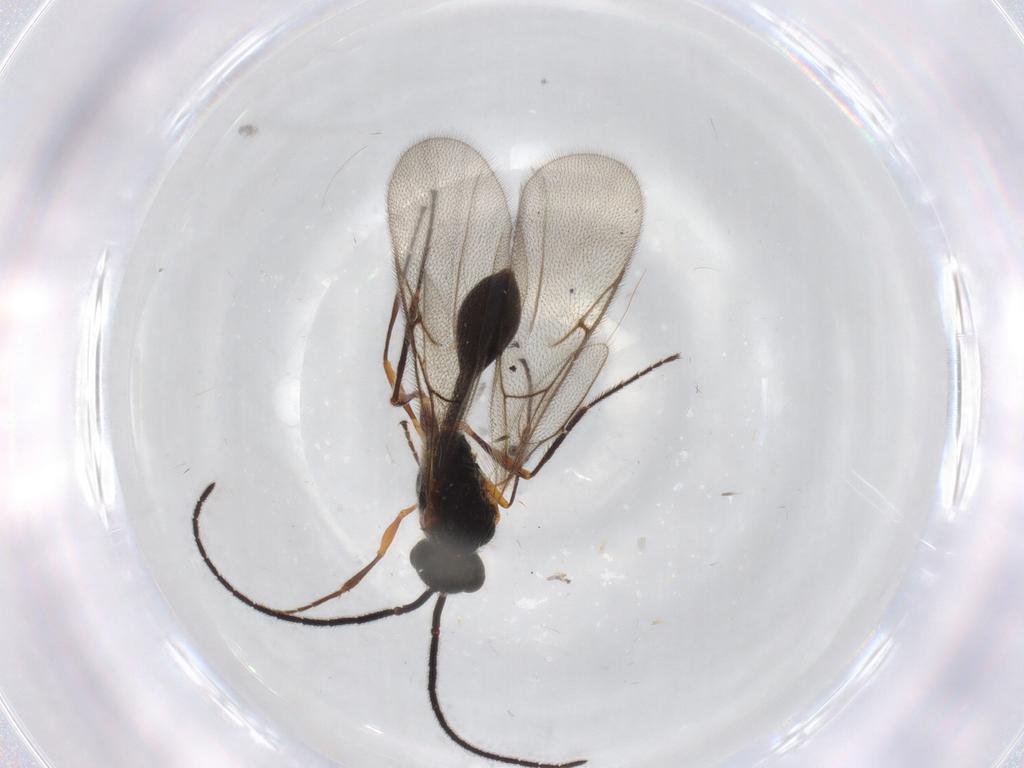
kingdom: Animalia
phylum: Arthropoda
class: Insecta
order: Hymenoptera
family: Diapriidae
